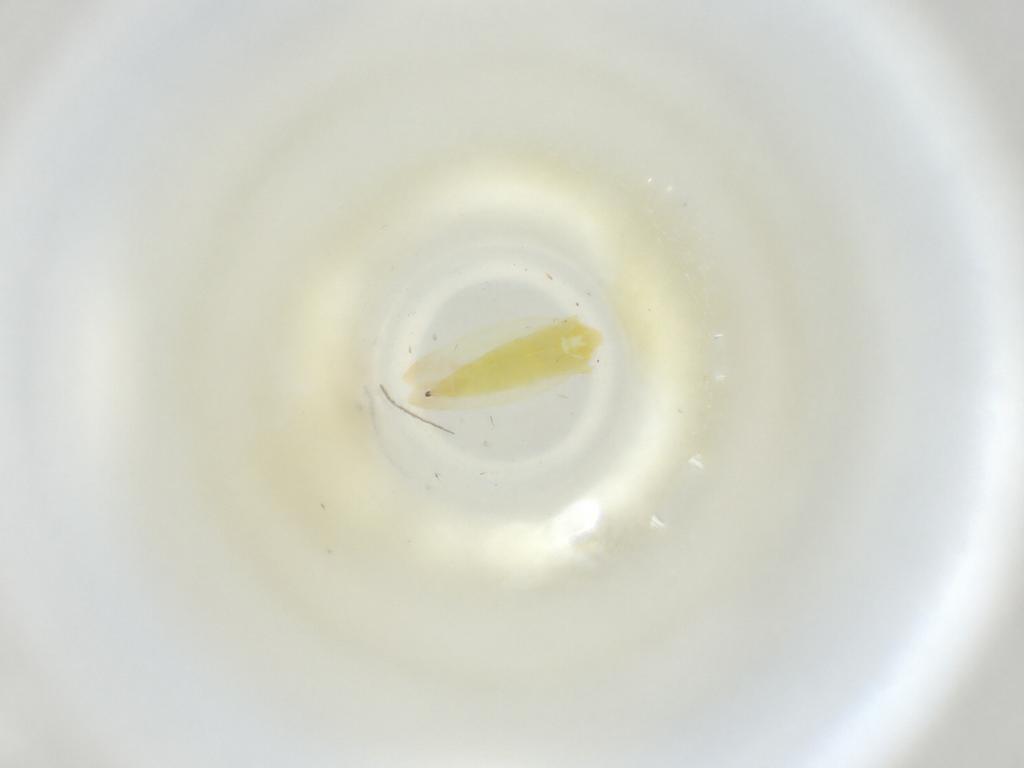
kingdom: Animalia
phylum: Arthropoda
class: Insecta
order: Hemiptera
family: Cicadellidae
